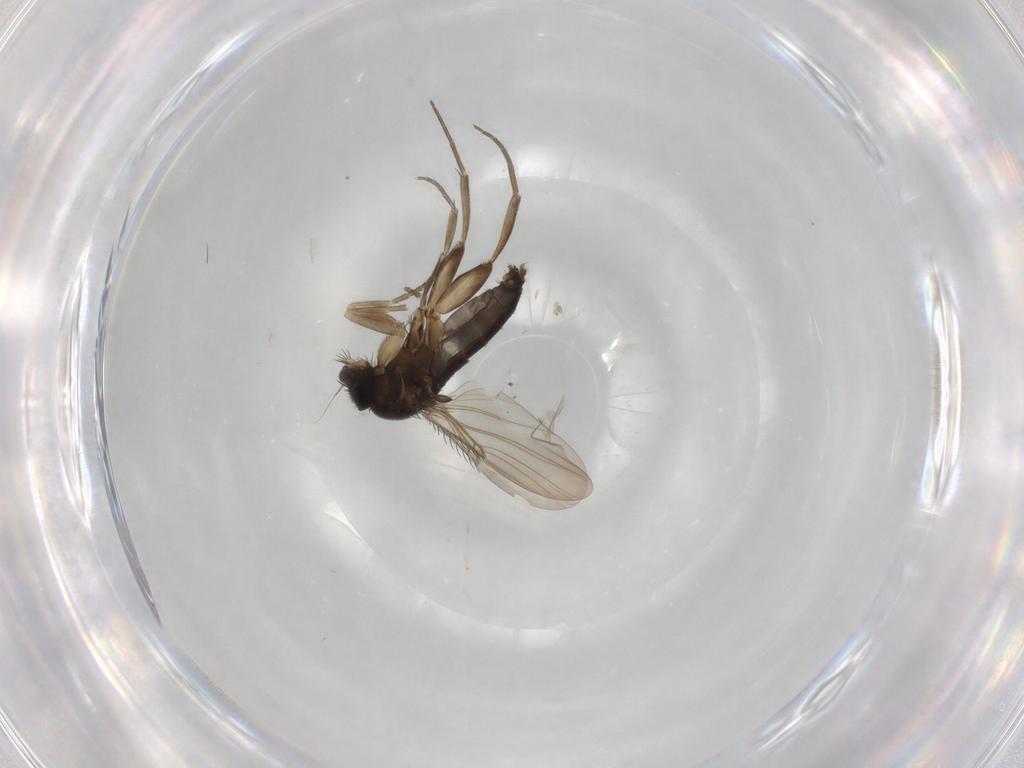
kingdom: Animalia
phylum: Arthropoda
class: Insecta
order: Diptera
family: Phoridae
